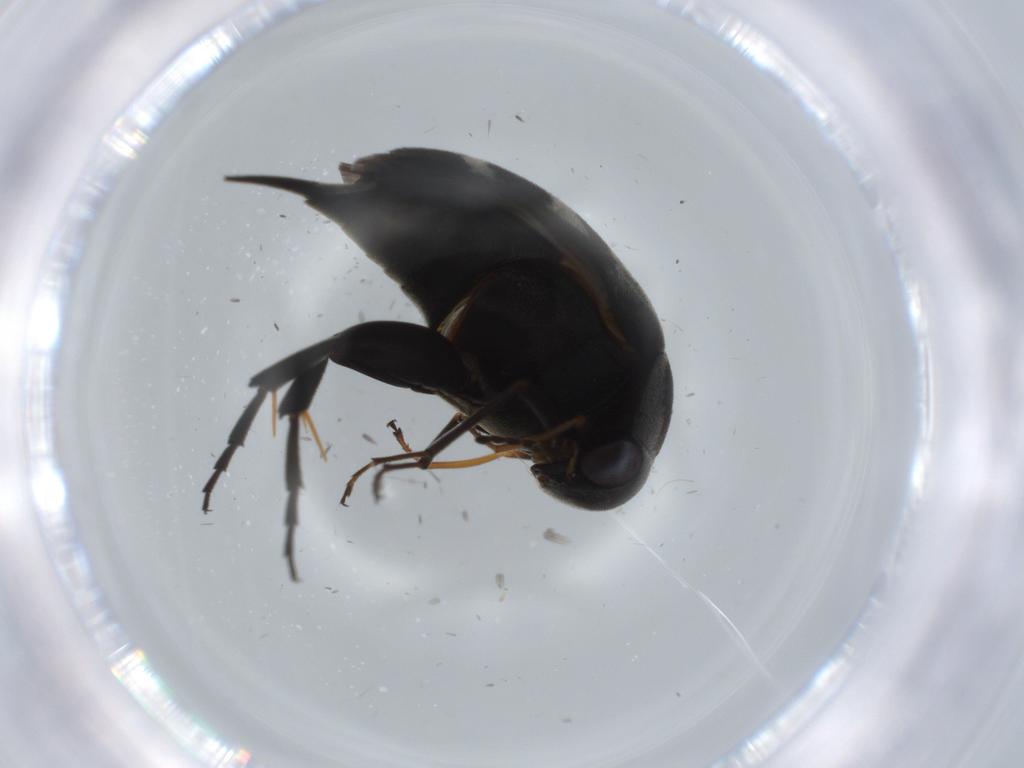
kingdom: Animalia
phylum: Arthropoda
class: Insecta
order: Coleoptera
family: Mordellidae
